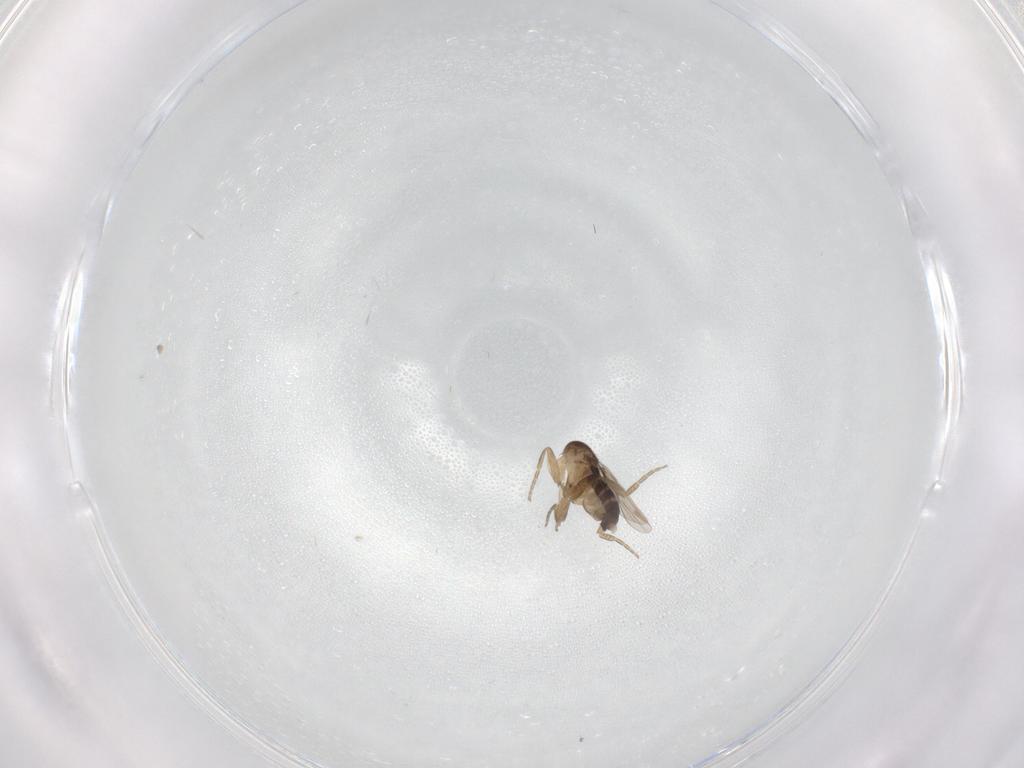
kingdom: Animalia
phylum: Arthropoda
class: Insecta
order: Diptera
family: Phoridae
